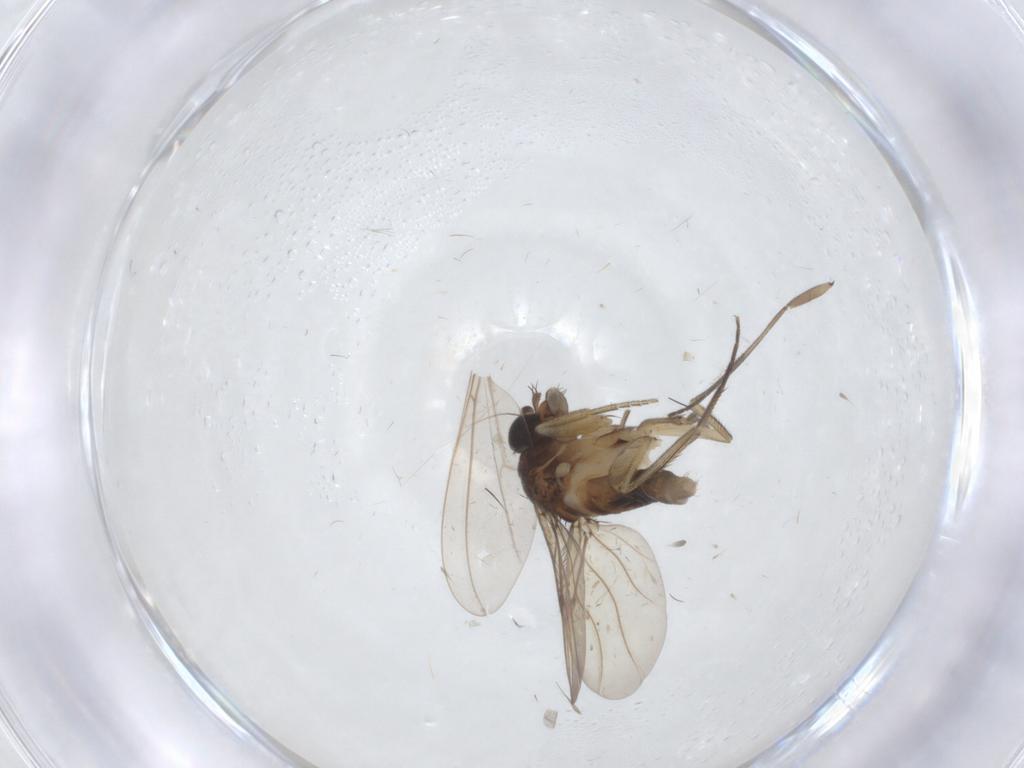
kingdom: Animalia
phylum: Arthropoda
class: Insecta
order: Diptera
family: Phoridae
